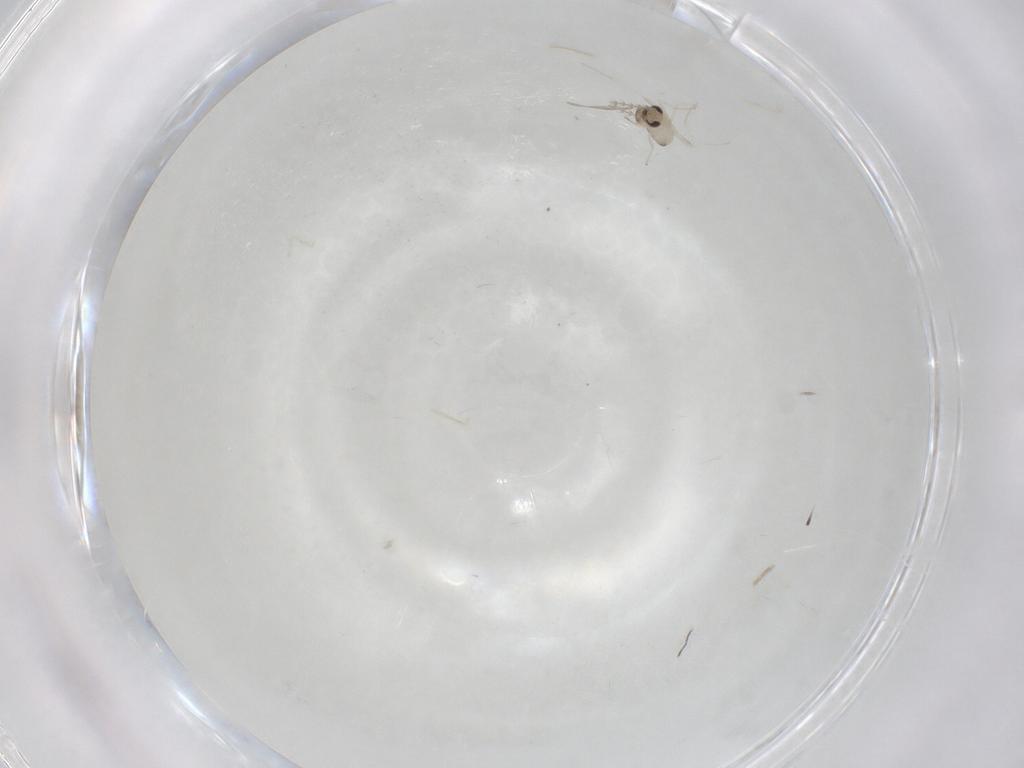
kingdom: Animalia
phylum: Arthropoda
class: Insecta
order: Diptera
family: Cecidomyiidae
